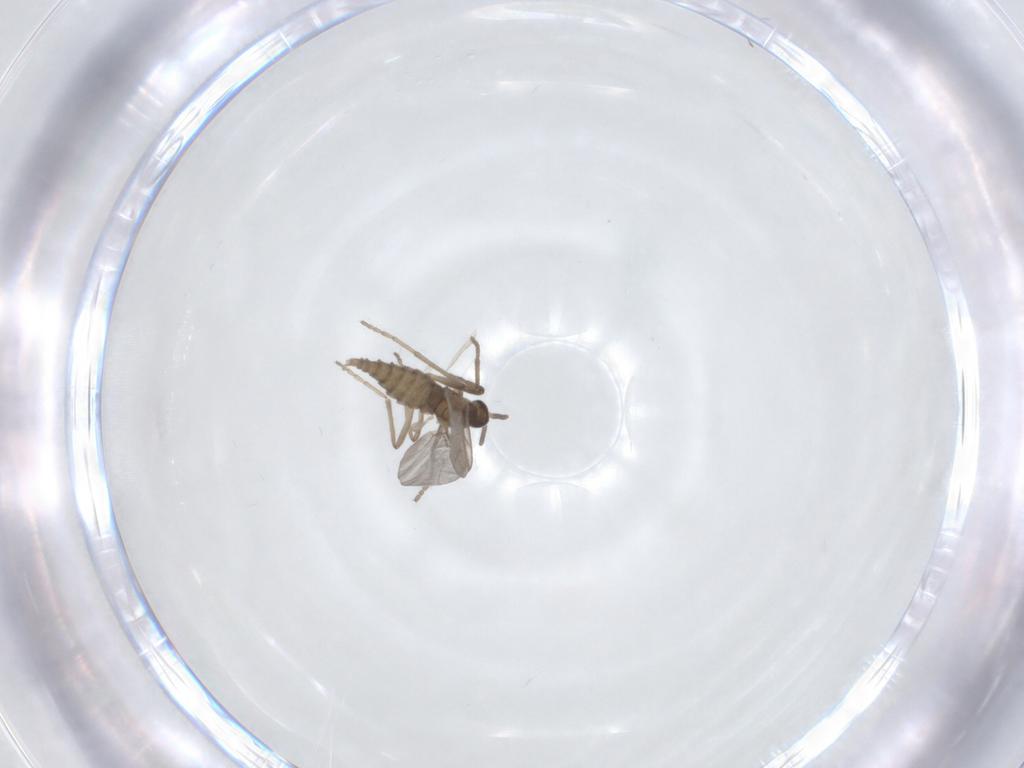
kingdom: Animalia
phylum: Arthropoda
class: Insecta
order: Diptera
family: Cecidomyiidae
